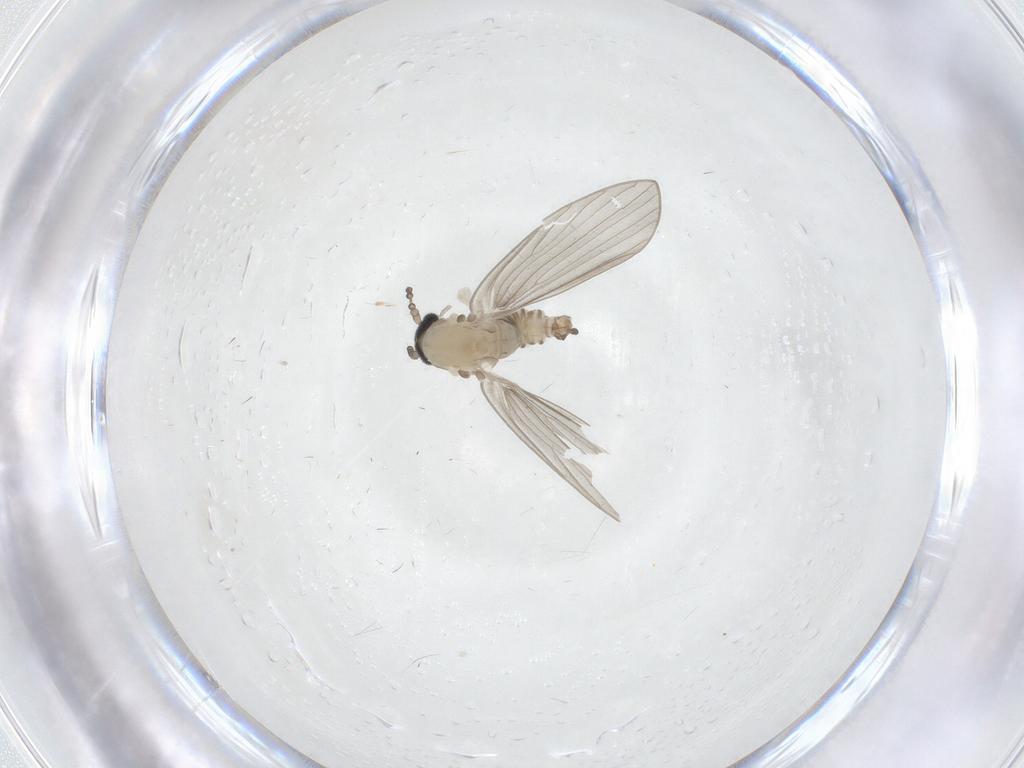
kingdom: Animalia
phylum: Arthropoda
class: Insecta
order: Diptera
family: Psychodidae
